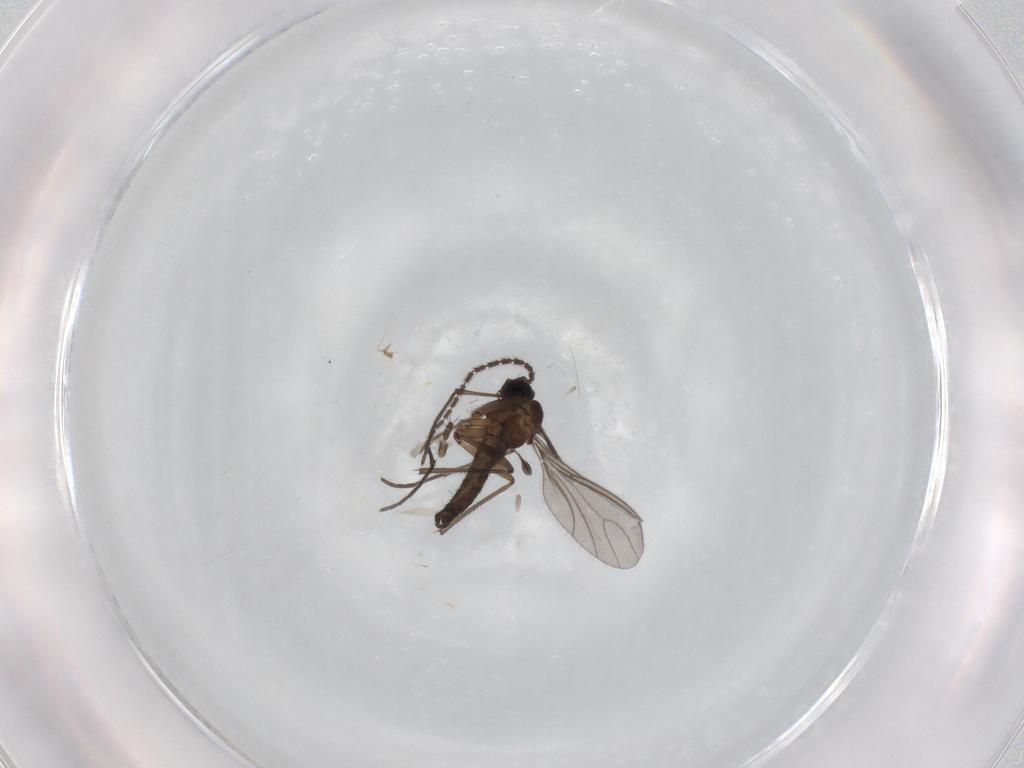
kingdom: Animalia
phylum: Arthropoda
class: Insecta
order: Diptera
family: Sciaridae
